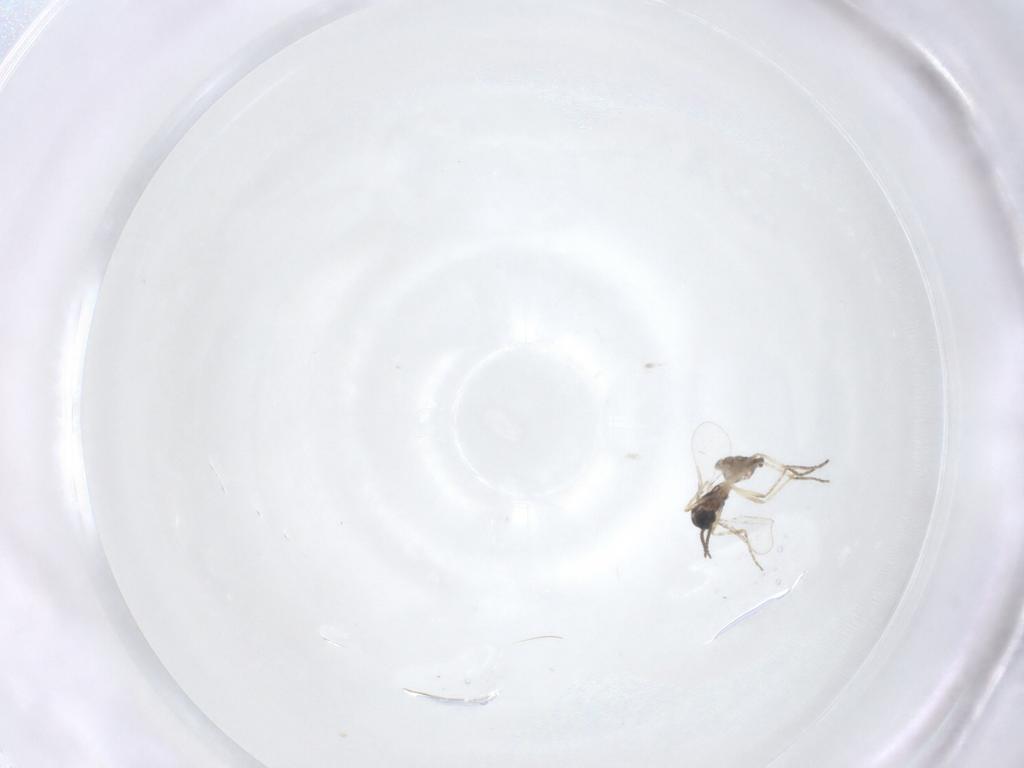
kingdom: Animalia
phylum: Arthropoda
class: Insecta
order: Diptera
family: Cecidomyiidae
